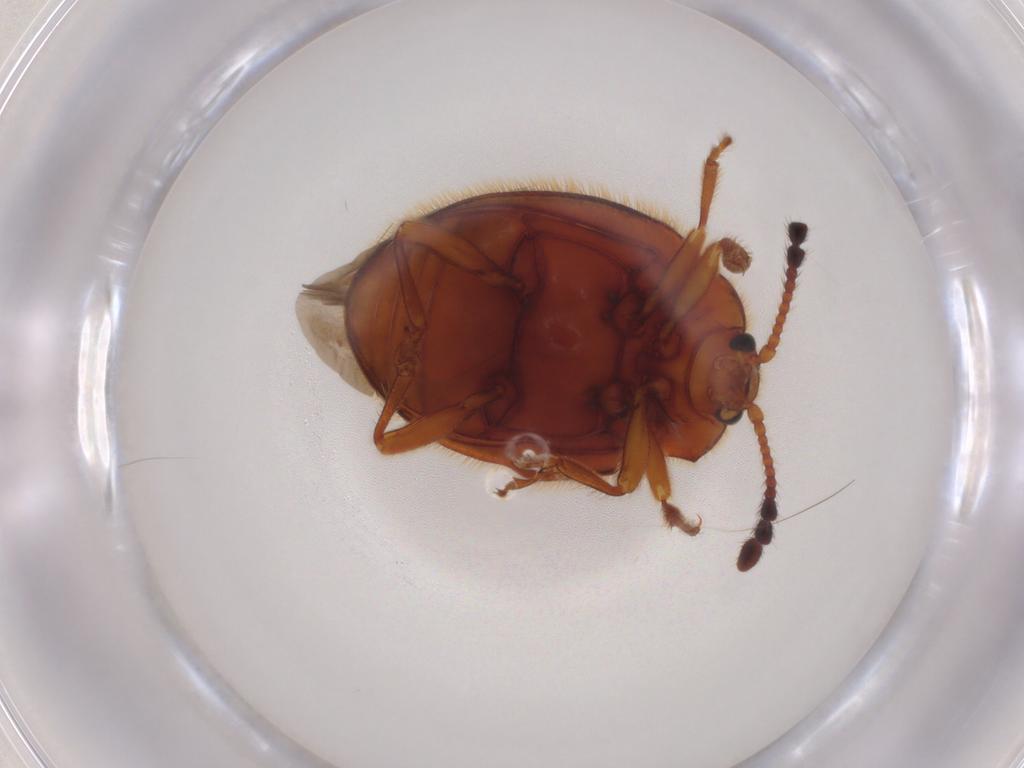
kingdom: Animalia
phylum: Arthropoda
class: Insecta
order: Coleoptera
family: Endomychidae
